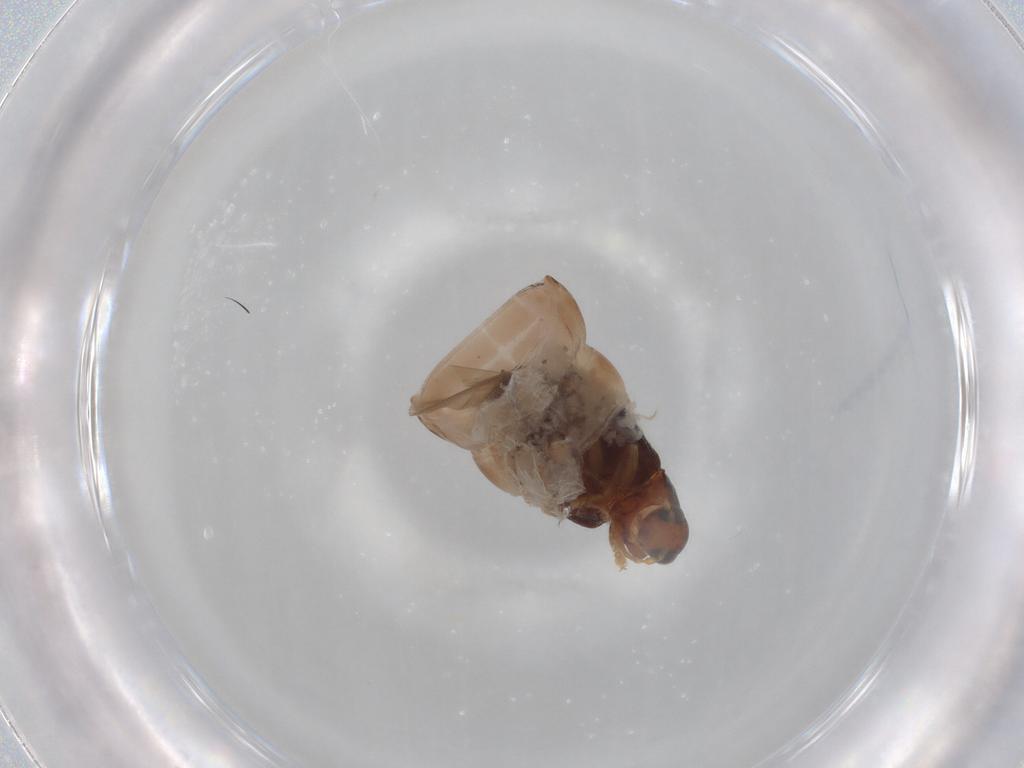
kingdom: Animalia
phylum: Arthropoda
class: Insecta
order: Coleoptera
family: Chrysomelidae
